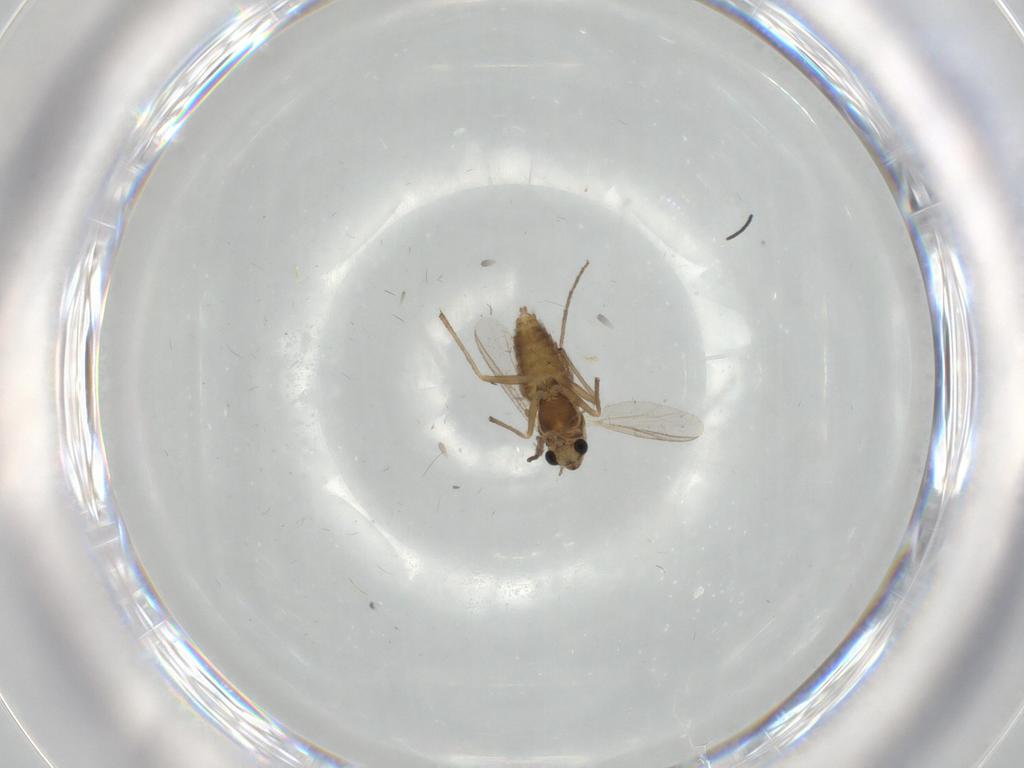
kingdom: Animalia
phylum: Arthropoda
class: Insecta
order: Diptera
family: Chironomidae
